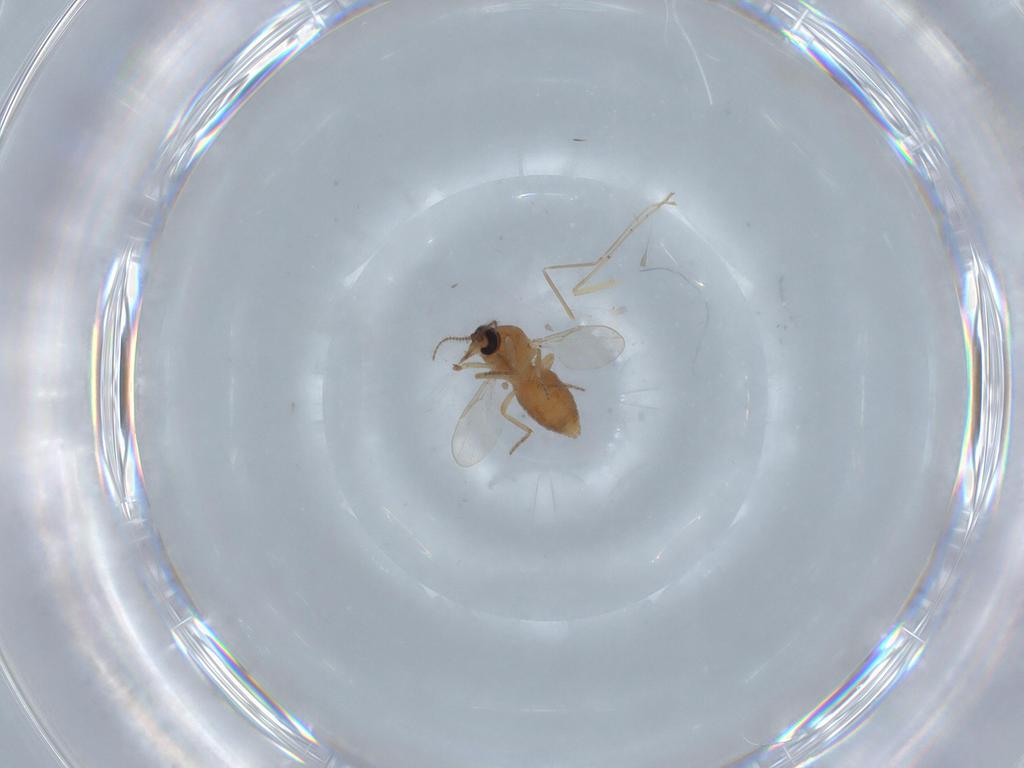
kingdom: Animalia
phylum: Arthropoda
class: Insecta
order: Diptera
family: Ceratopogonidae
